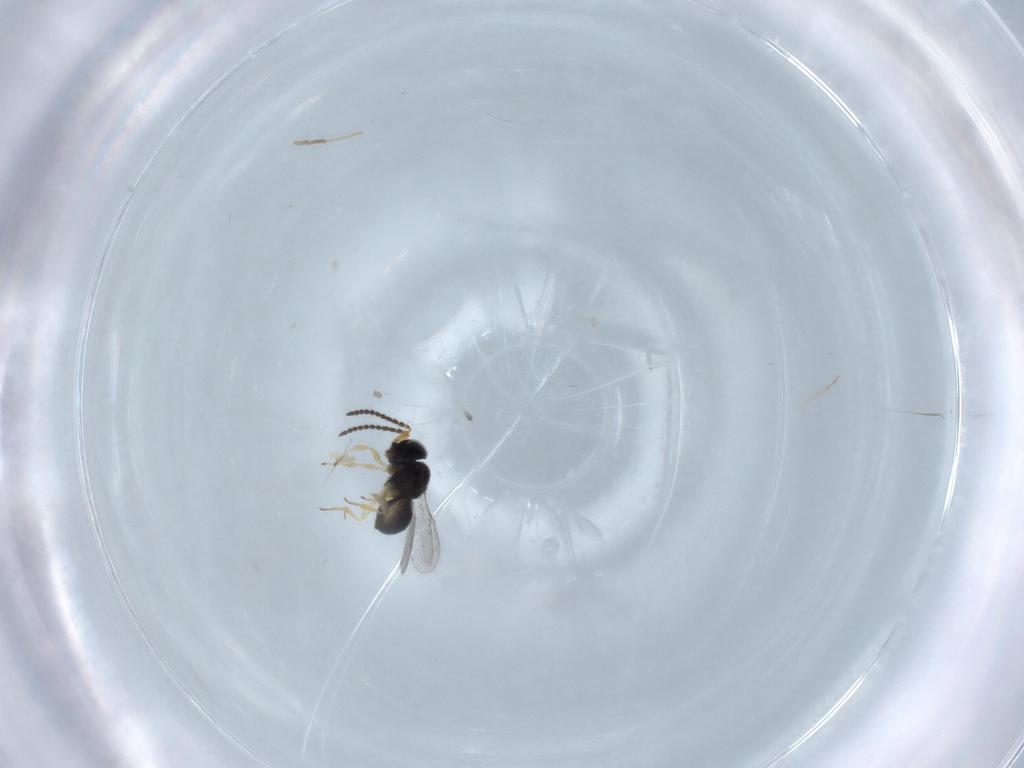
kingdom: Animalia
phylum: Arthropoda
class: Insecta
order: Hymenoptera
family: Scelionidae
